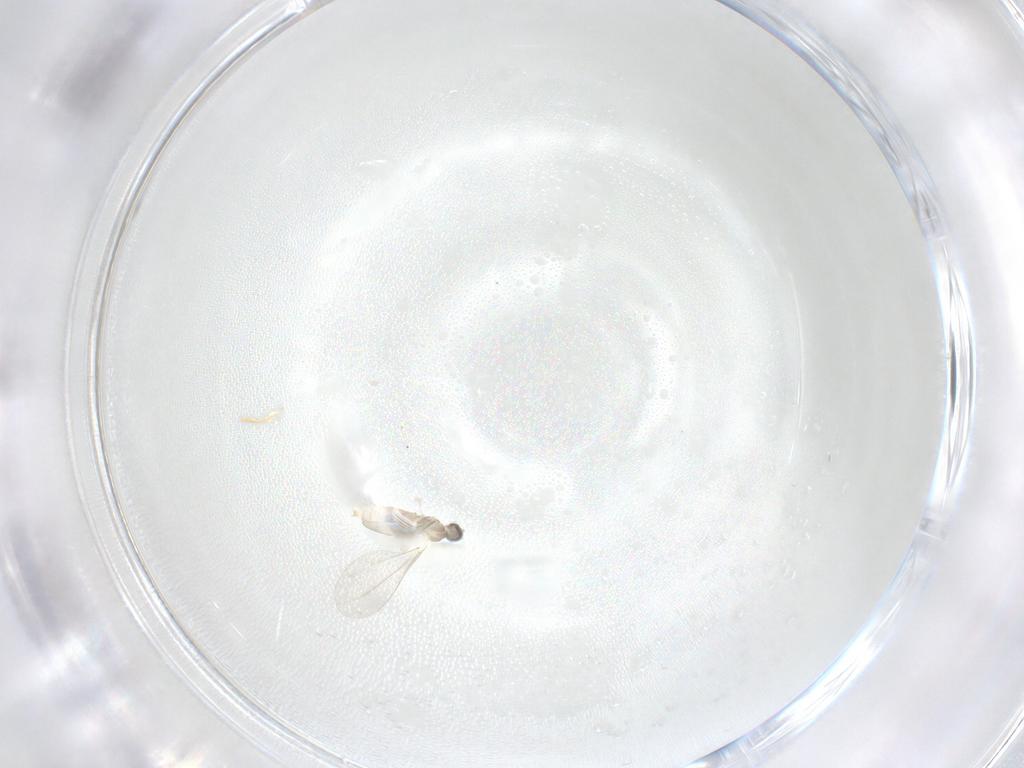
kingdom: Animalia
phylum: Arthropoda
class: Insecta
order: Diptera
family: Cecidomyiidae
